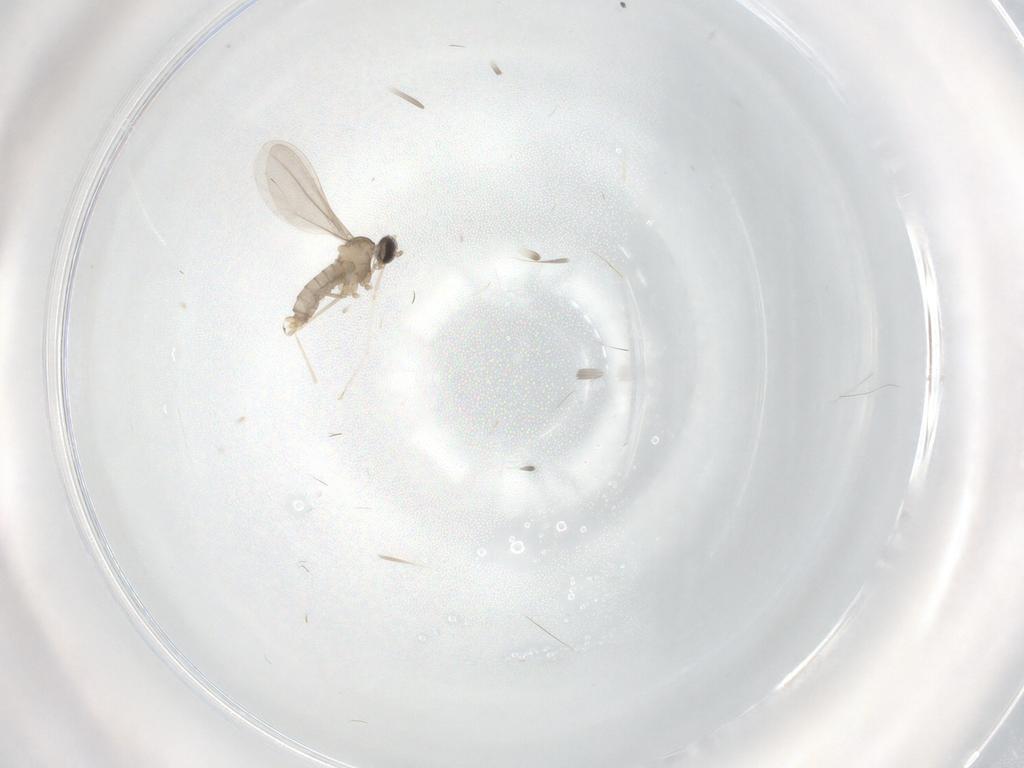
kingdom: Animalia
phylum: Arthropoda
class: Insecta
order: Diptera
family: Cecidomyiidae
